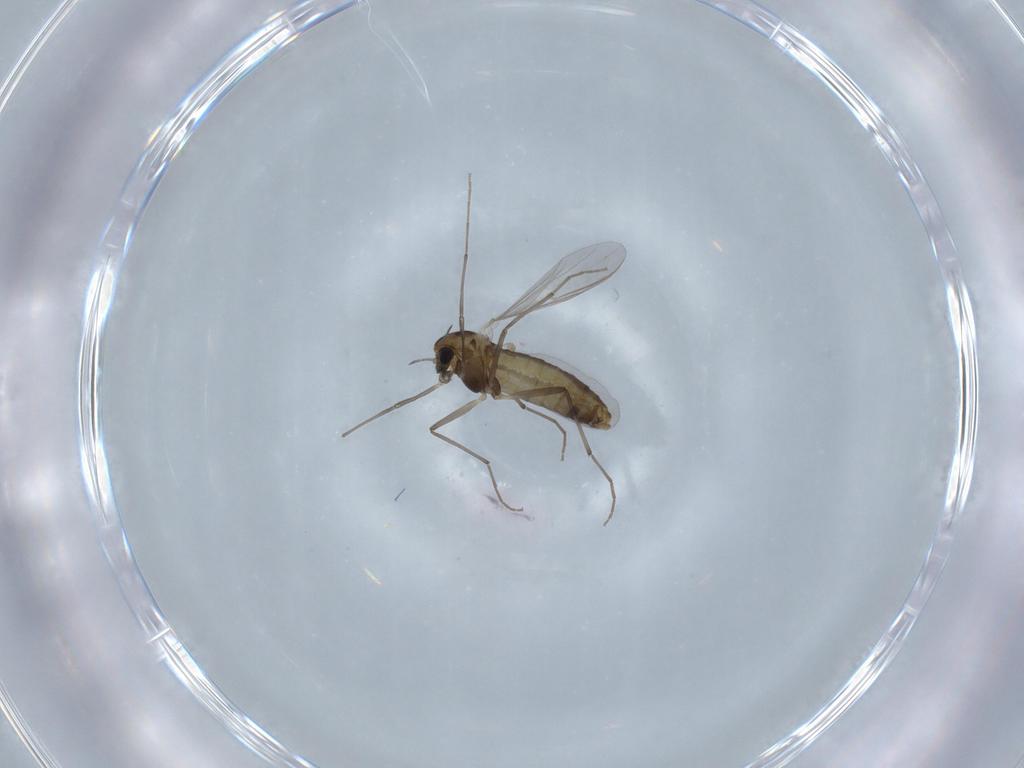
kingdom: Animalia
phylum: Arthropoda
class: Insecta
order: Diptera
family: Chironomidae
